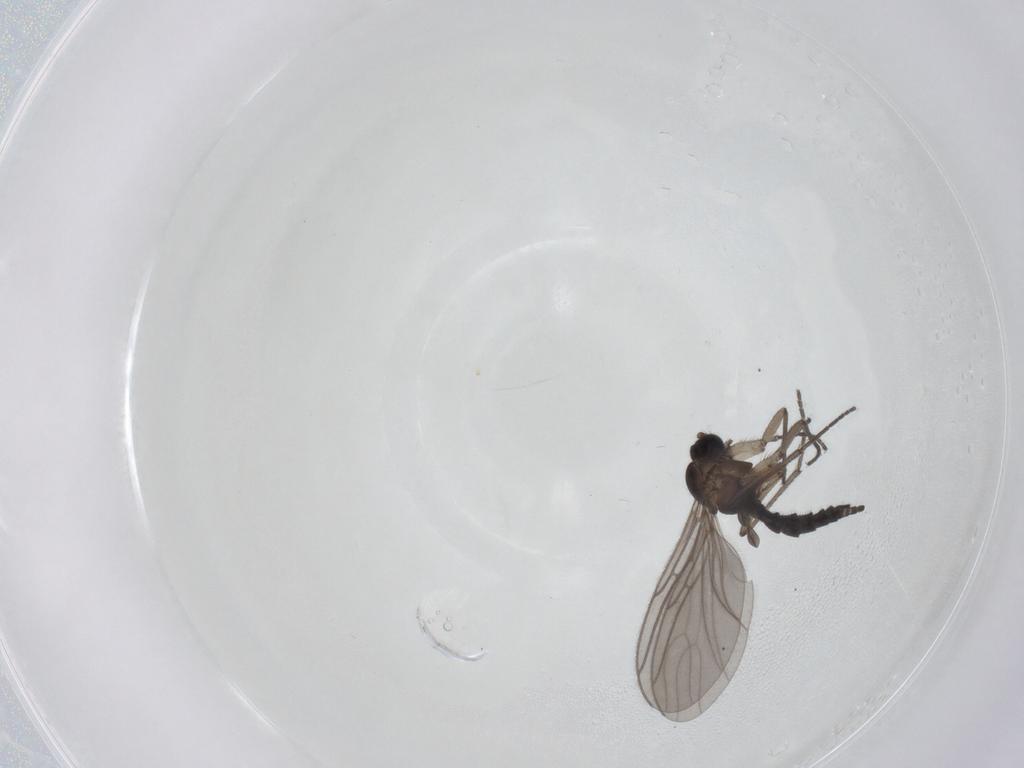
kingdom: Animalia
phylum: Arthropoda
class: Insecta
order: Diptera
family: Sciaridae
